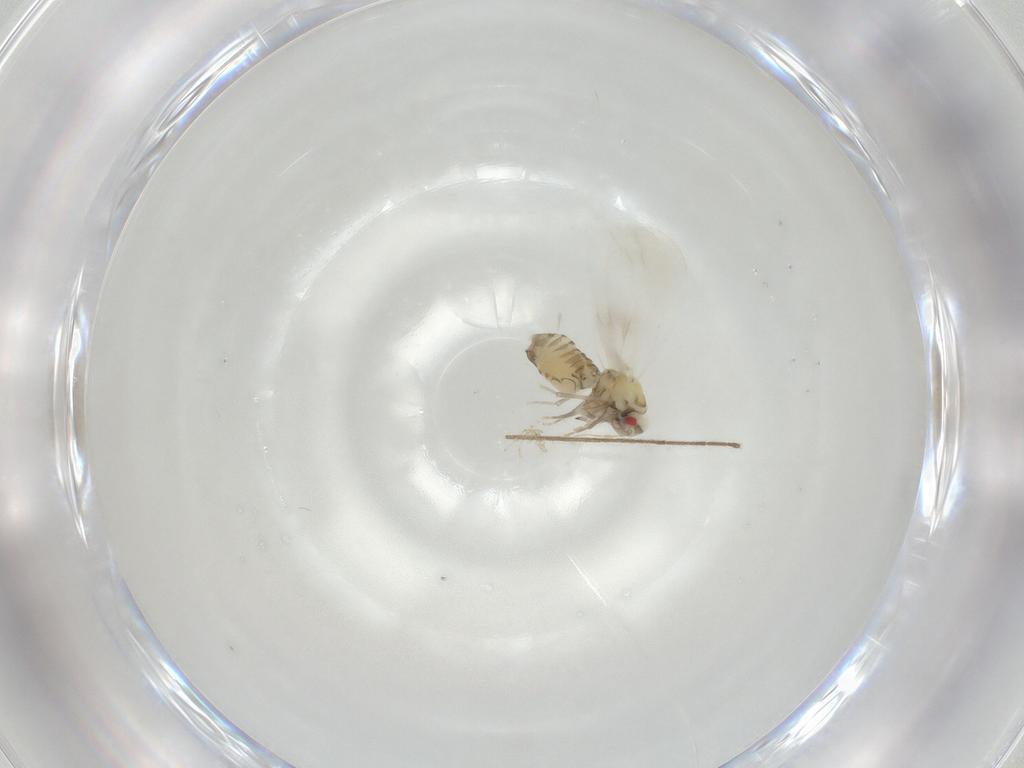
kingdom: Animalia
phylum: Arthropoda
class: Insecta
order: Hemiptera
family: Aleyrodidae
